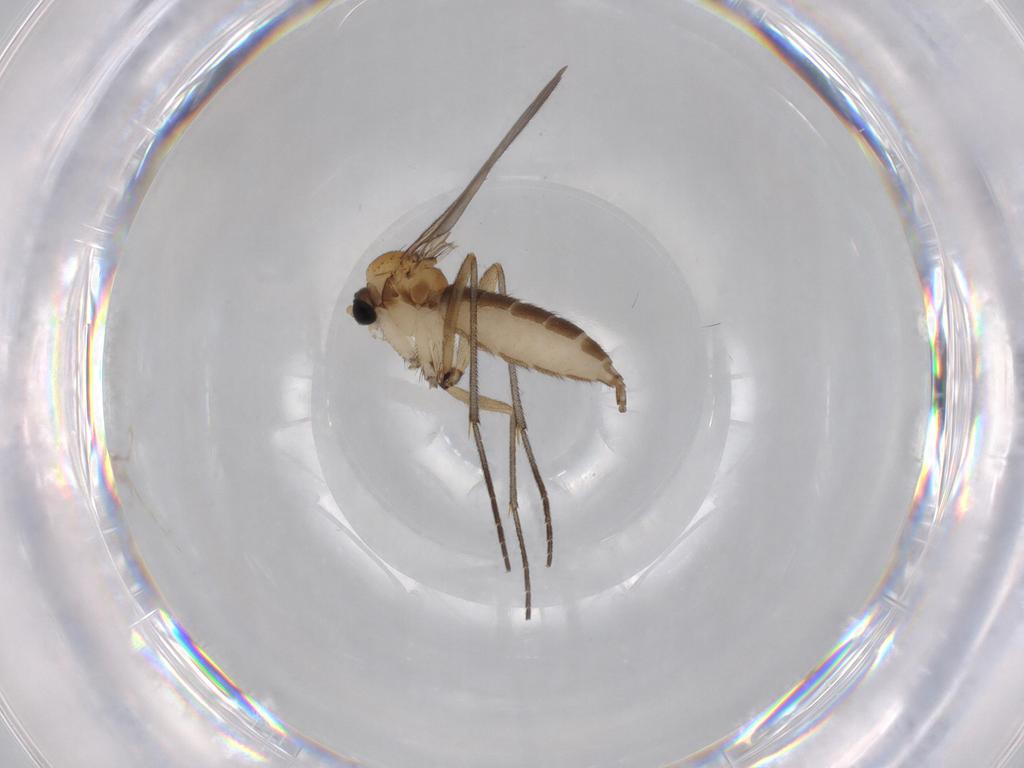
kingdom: Animalia
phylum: Arthropoda
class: Insecta
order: Diptera
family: Sciaridae
